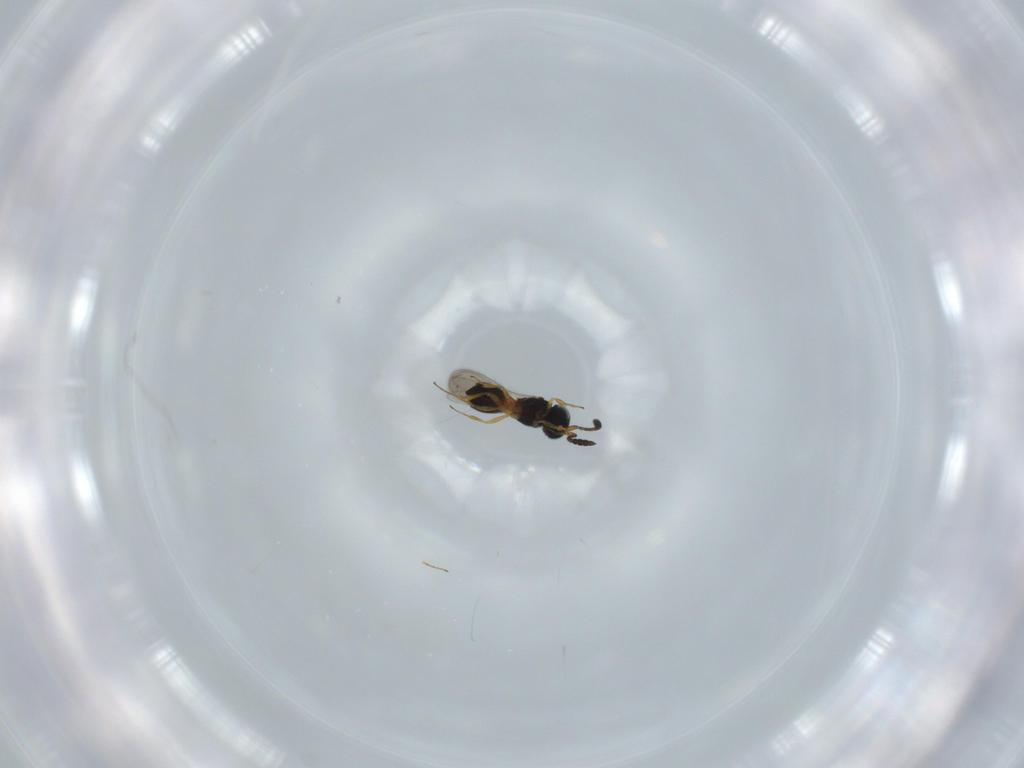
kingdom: Animalia
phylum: Arthropoda
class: Insecta
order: Hymenoptera
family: Scelionidae
